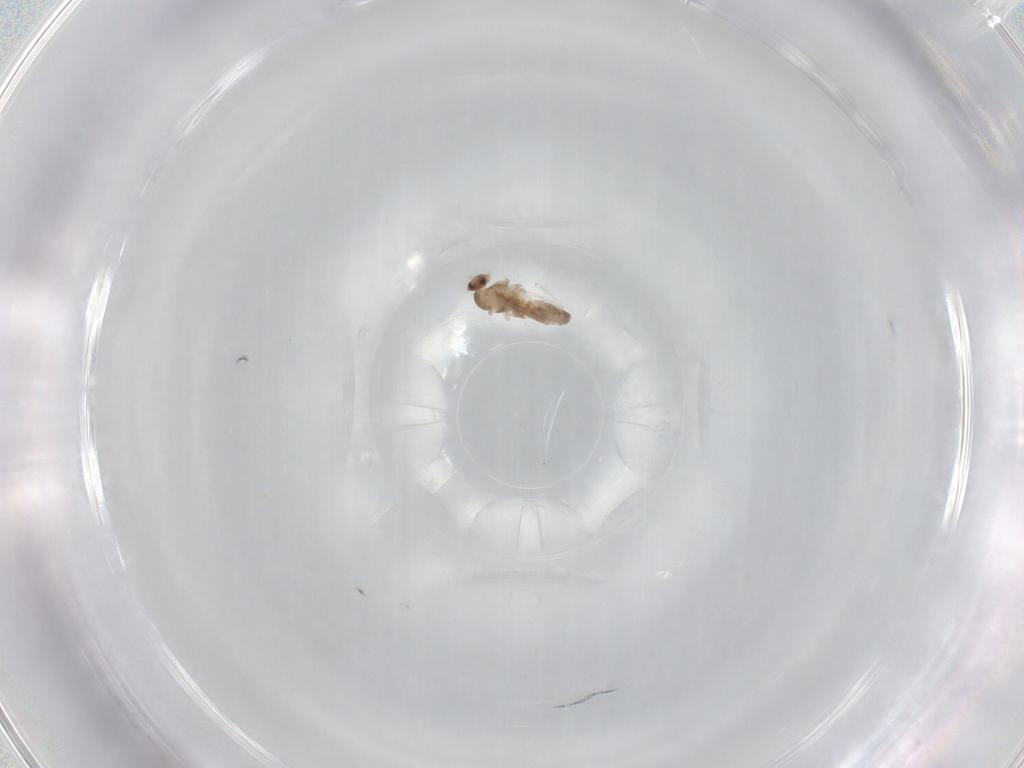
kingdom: Animalia
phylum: Arthropoda
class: Insecta
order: Diptera
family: Cecidomyiidae
